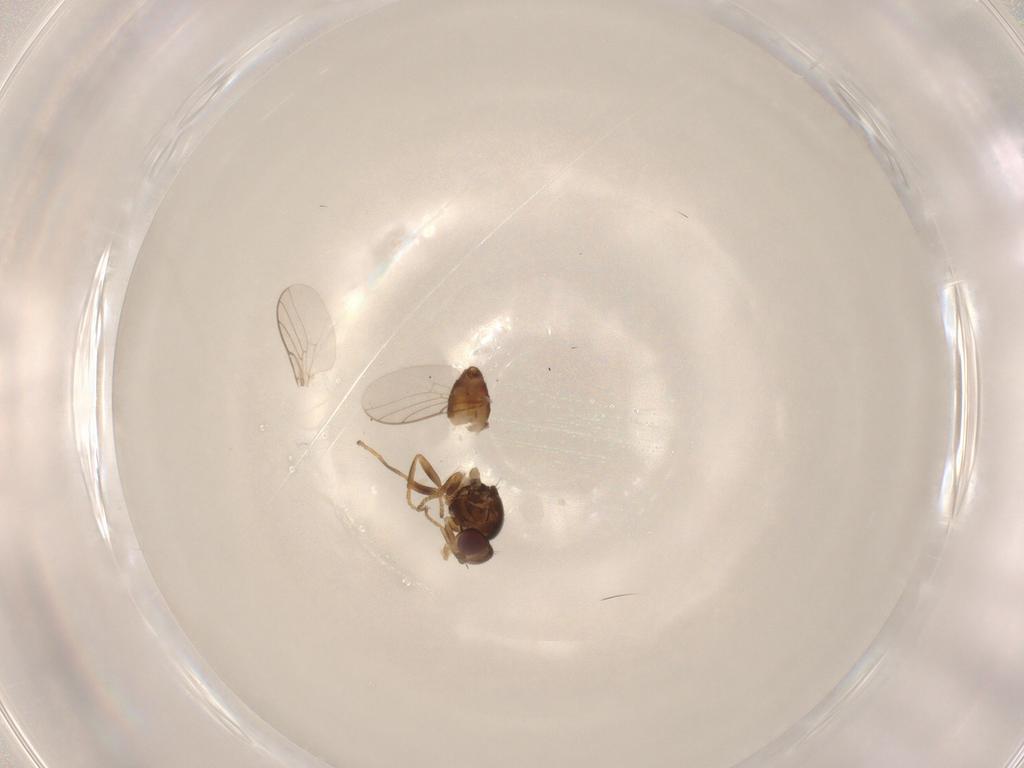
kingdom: Animalia
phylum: Arthropoda
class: Insecta
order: Diptera
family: Chloropidae
